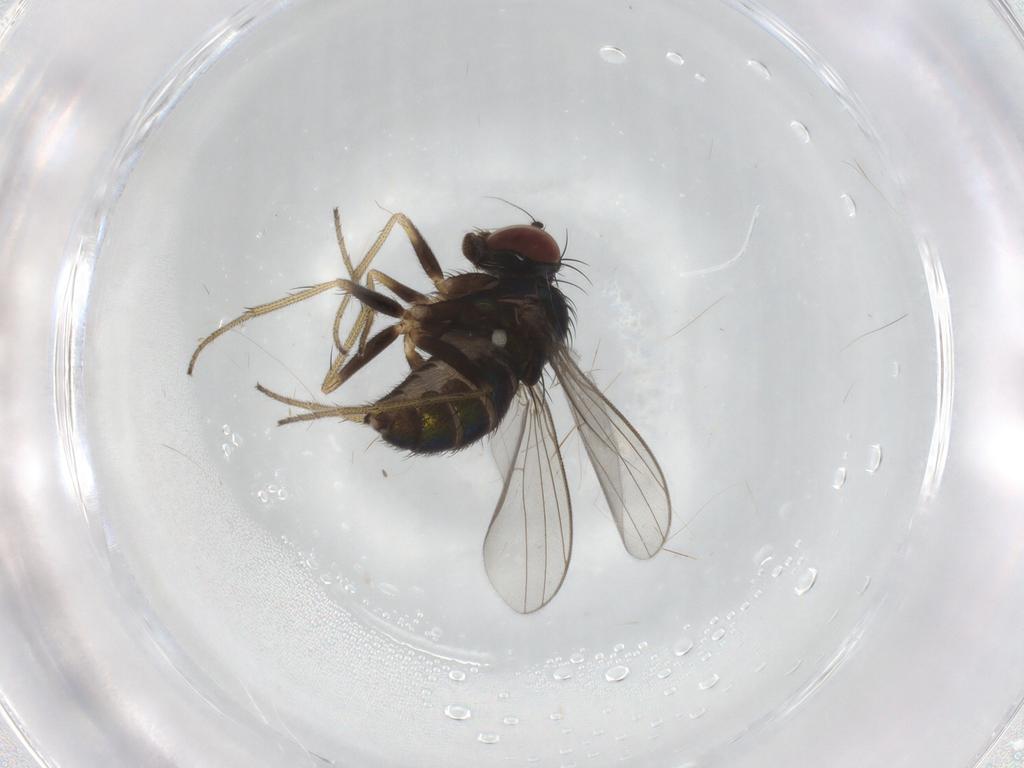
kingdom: Animalia
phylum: Arthropoda
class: Insecta
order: Diptera
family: Dolichopodidae
